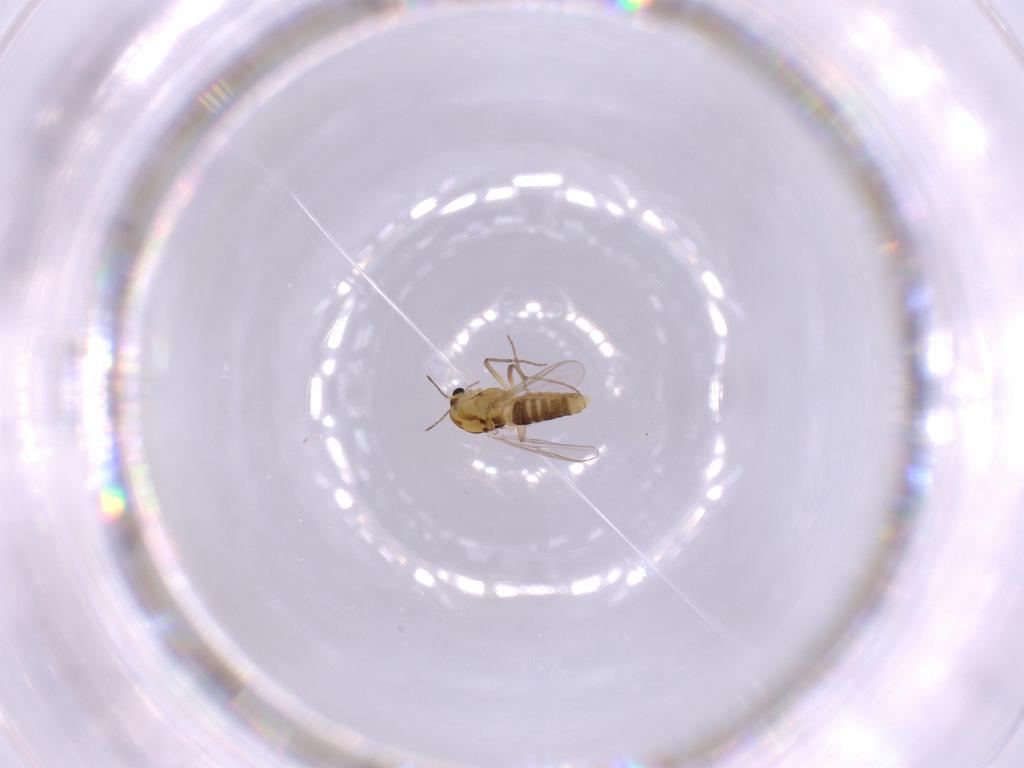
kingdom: Animalia
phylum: Arthropoda
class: Insecta
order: Diptera
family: Chironomidae
